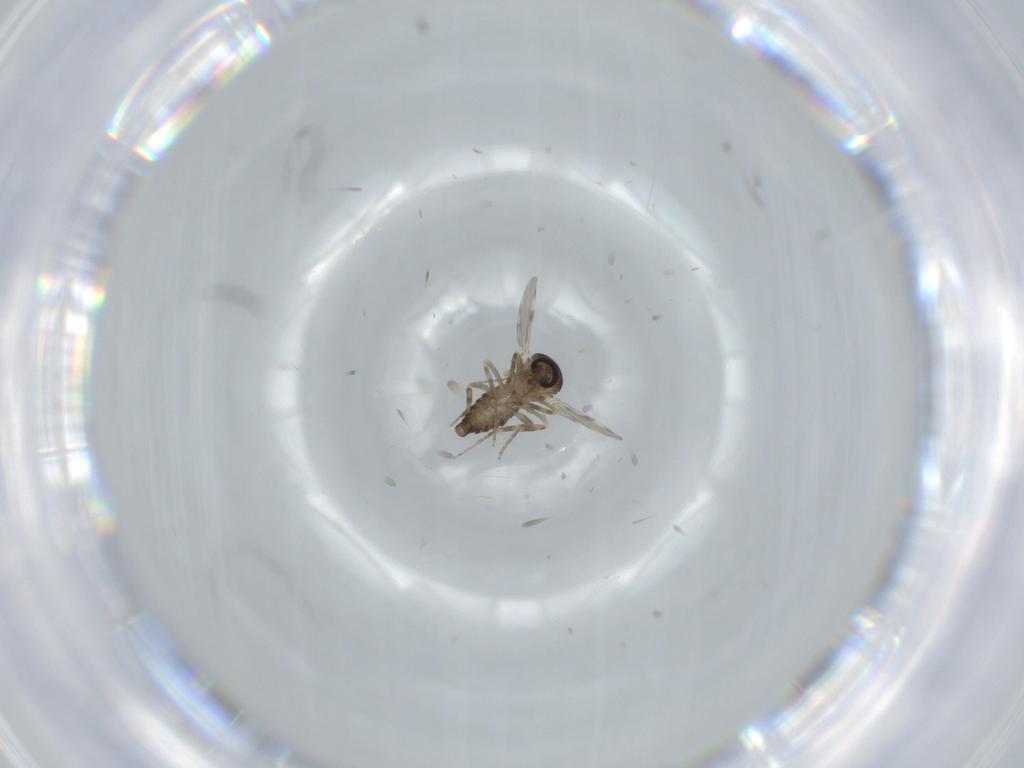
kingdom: Animalia
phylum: Arthropoda
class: Insecta
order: Diptera
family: Ceratopogonidae
